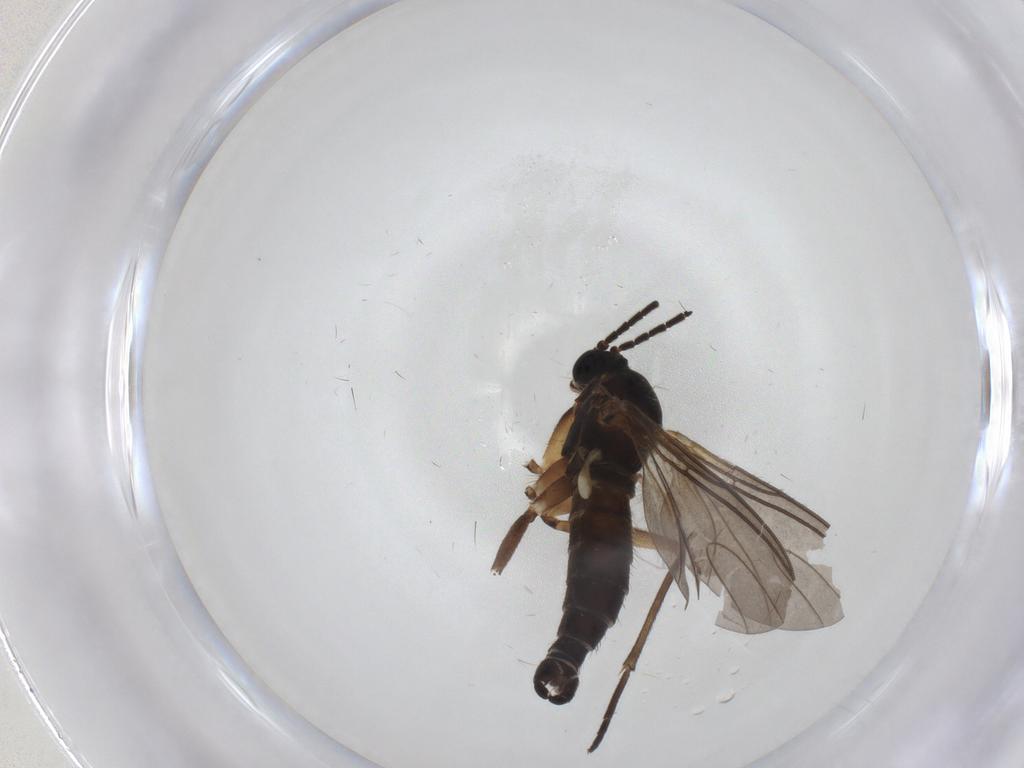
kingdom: Animalia
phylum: Arthropoda
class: Insecta
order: Diptera
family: Sciaridae
